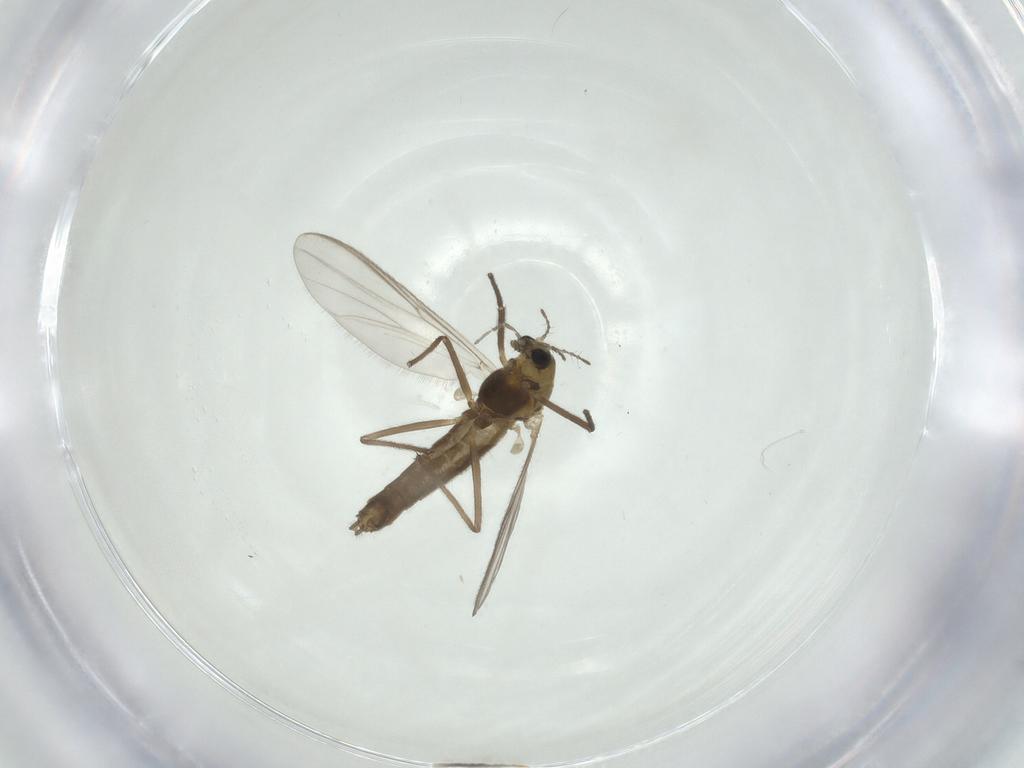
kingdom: Animalia
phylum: Arthropoda
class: Insecta
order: Diptera
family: Chironomidae
